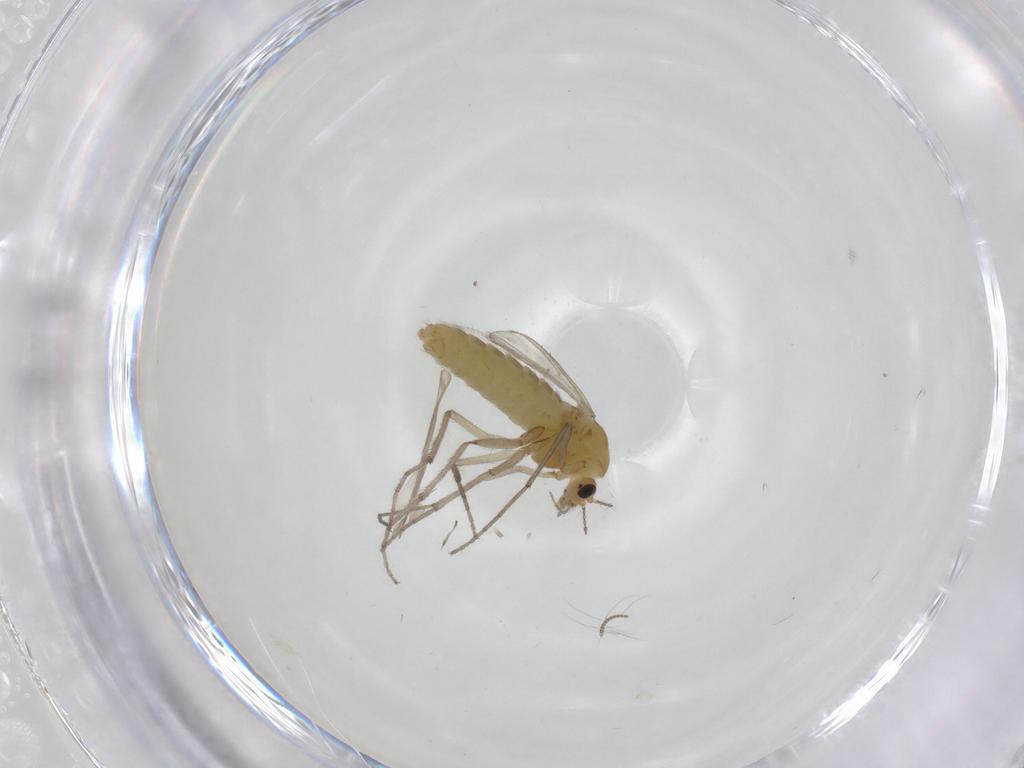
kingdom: Animalia
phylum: Arthropoda
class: Insecta
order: Diptera
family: Chironomidae
